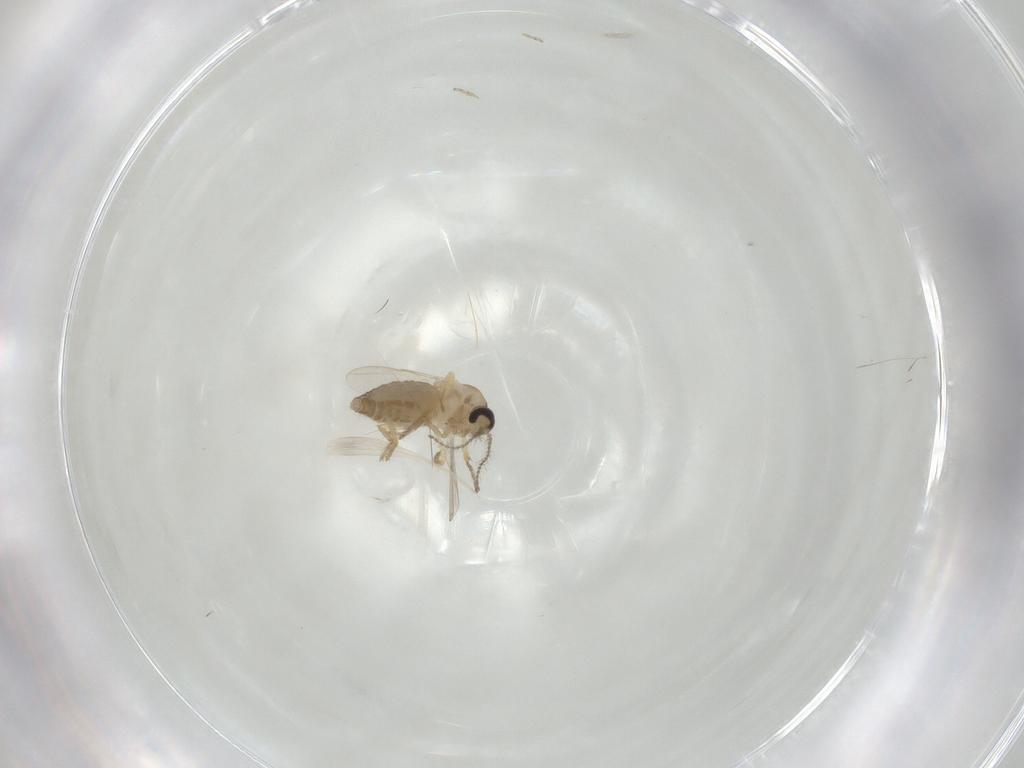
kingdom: Animalia
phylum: Arthropoda
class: Insecta
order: Diptera
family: Ceratopogonidae
